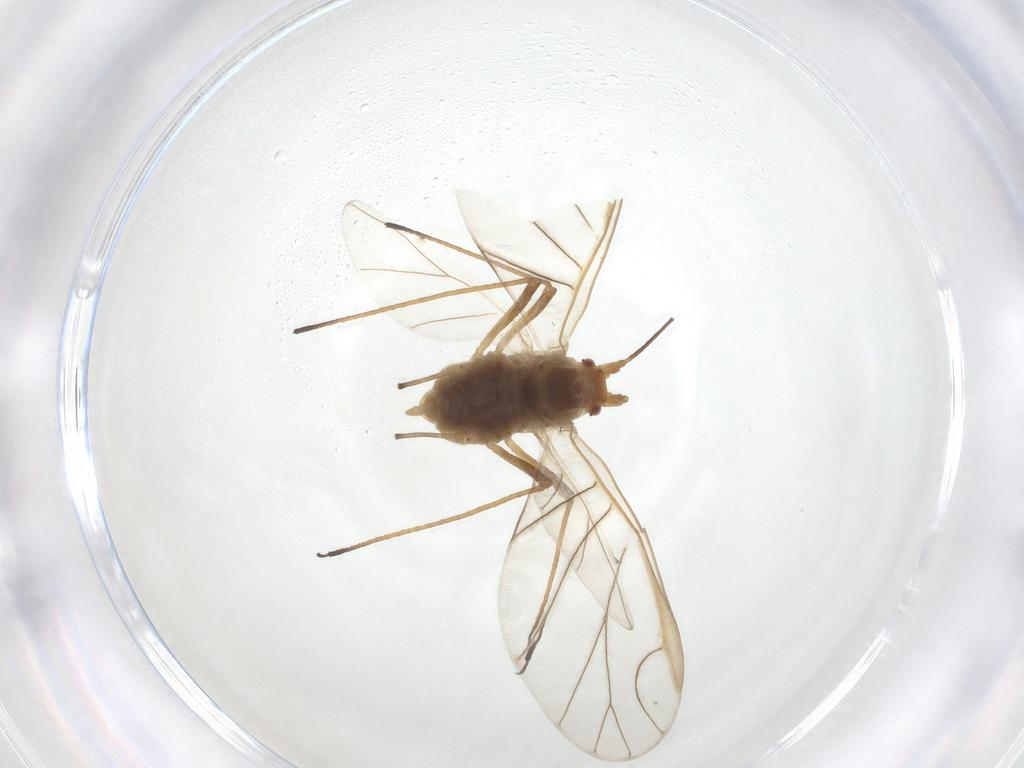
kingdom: Animalia
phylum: Arthropoda
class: Insecta
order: Hemiptera
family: Aphididae
